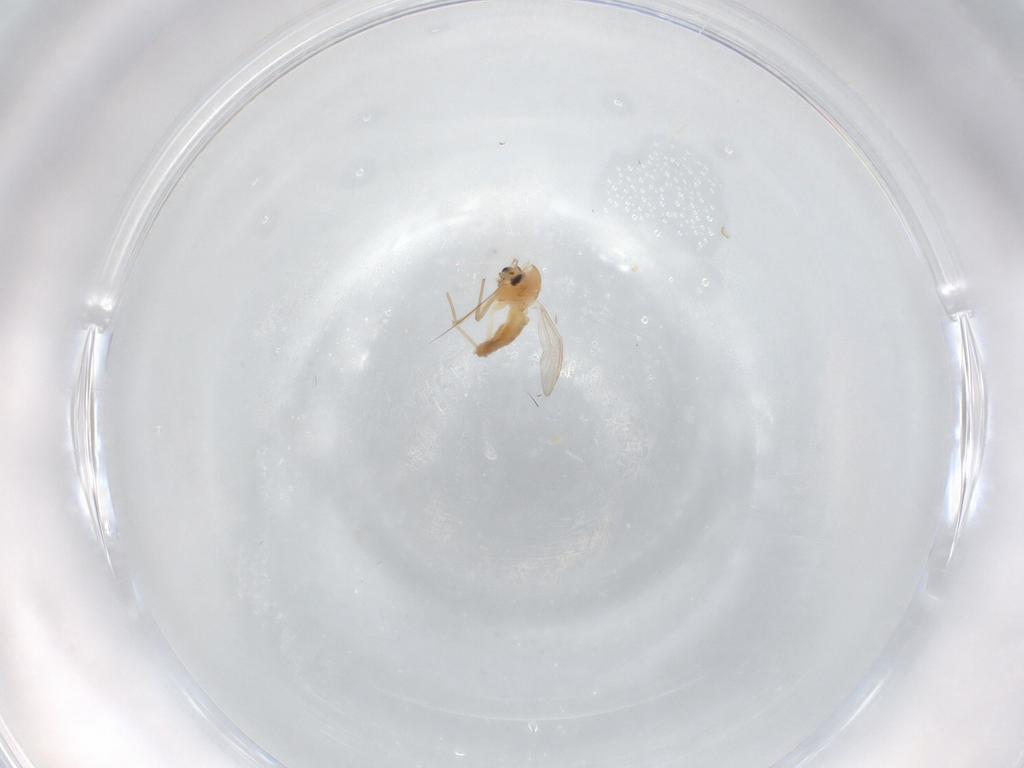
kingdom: Animalia
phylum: Arthropoda
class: Insecta
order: Diptera
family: Chironomidae
